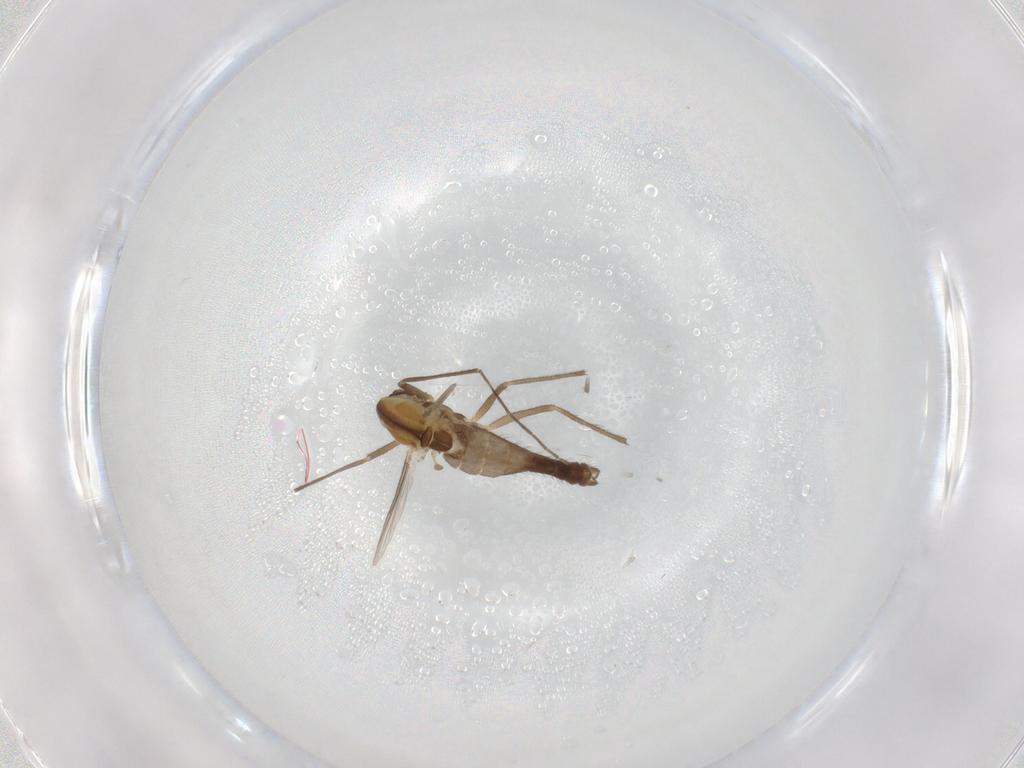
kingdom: Animalia
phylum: Arthropoda
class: Insecta
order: Diptera
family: Chironomidae
